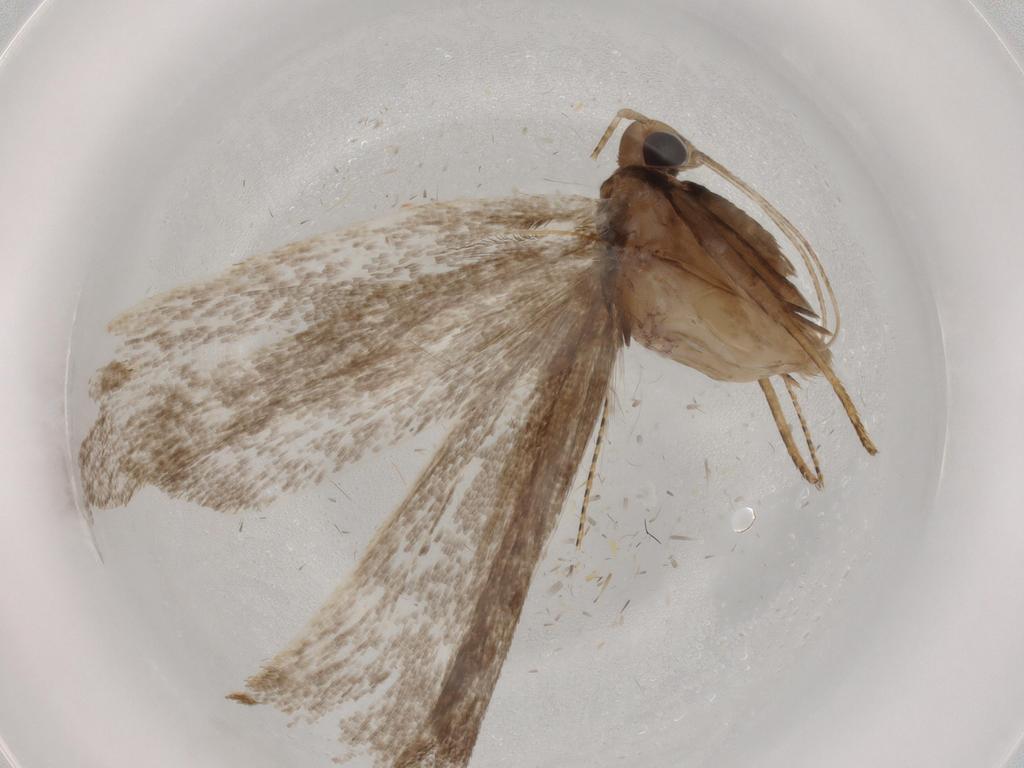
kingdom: Animalia
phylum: Arthropoda
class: Insecta
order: Lepidoptera
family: Gelechiidae
